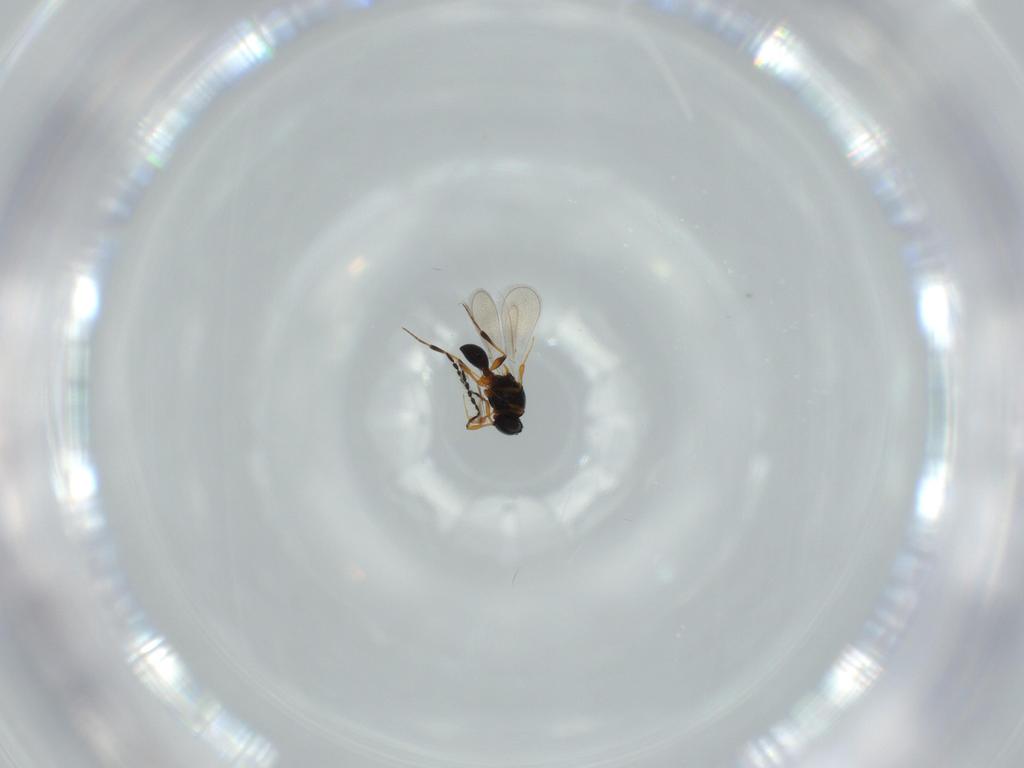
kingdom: Animalia
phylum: Arthropoda
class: Insecta
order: Hymenoptera
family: Platygastridae
